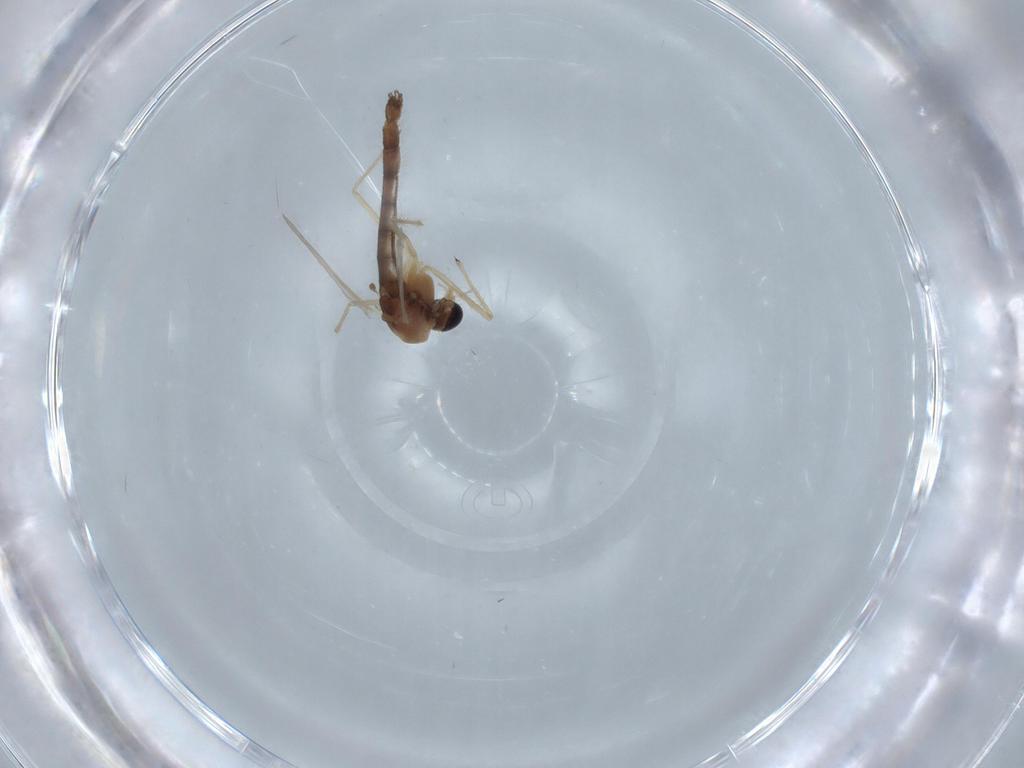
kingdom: Animalia
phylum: Arthropoda
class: Insecta
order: Diptera
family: Chironomidae
